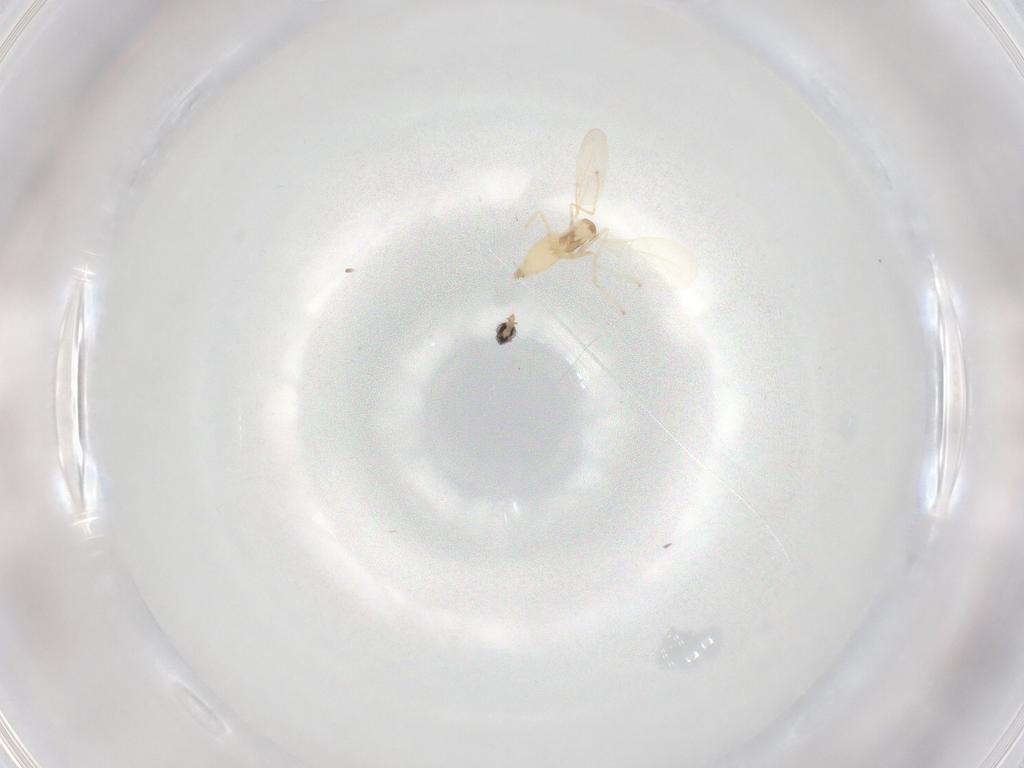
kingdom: Animalia
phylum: Arthropoda
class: Insecta
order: Diptera
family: Cecidomyiidae
